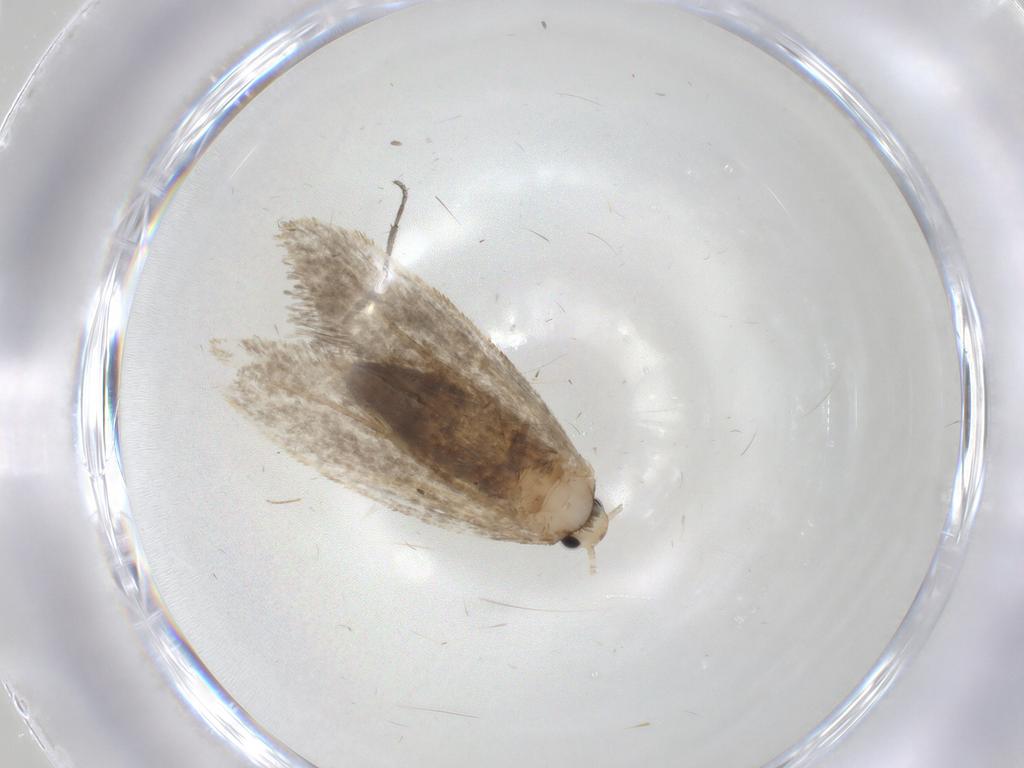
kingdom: Animalia
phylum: Arthropoda
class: Insecta
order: Lepidoptera
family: Psychidae
